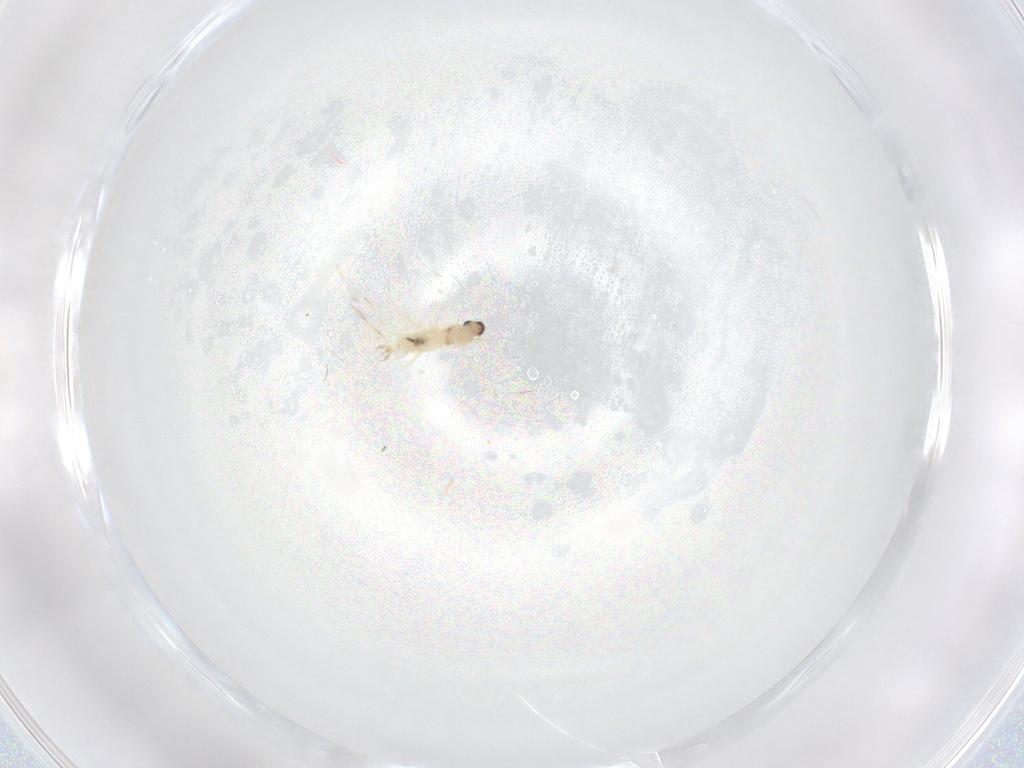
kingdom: Animalia
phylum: Arthropoda
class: Insecta
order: Diptera
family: Cecidomyiidae
